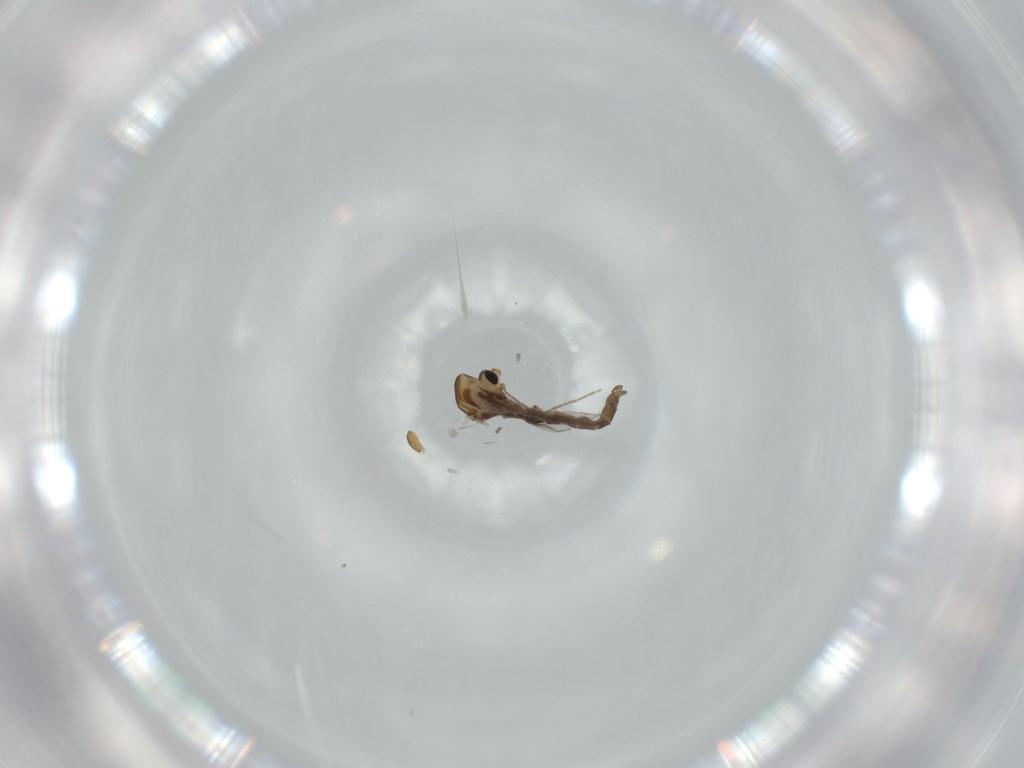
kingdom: Animalia
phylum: Arthropoda
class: Insecta
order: Diptera
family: Chironomidae
